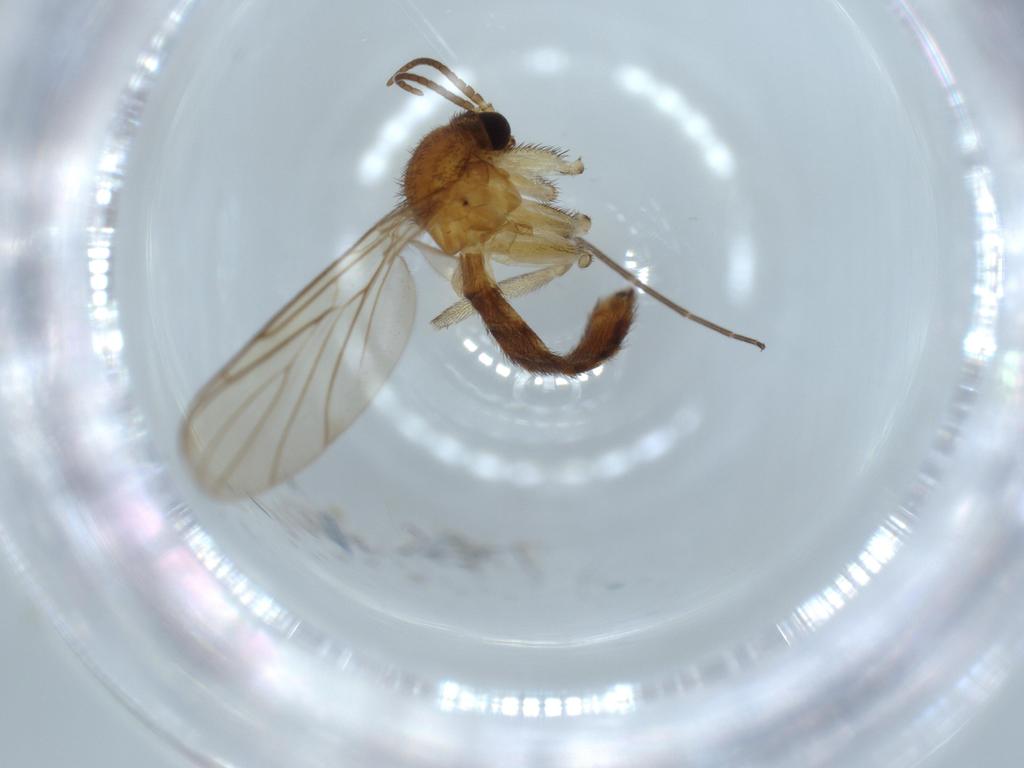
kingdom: Animalia
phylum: Arthropoda
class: Insecta
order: Diptera
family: Keroplatidae
